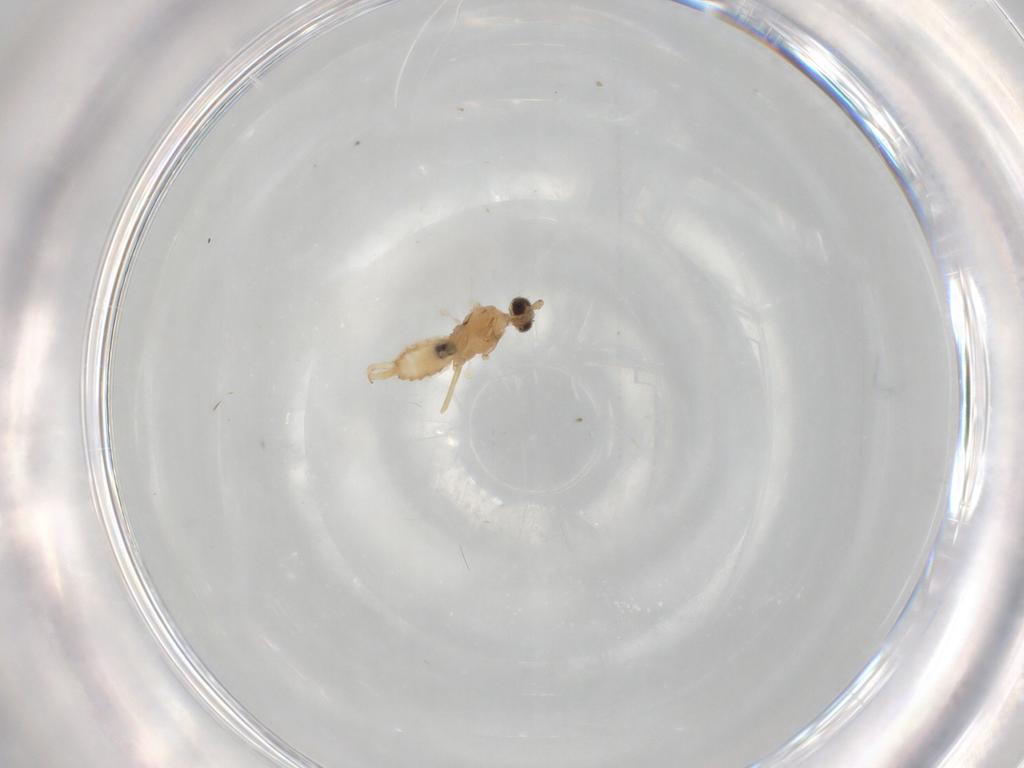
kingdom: Animalia
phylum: Arthropoda
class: Insecta
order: Diptera
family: Cecidomyiidae
